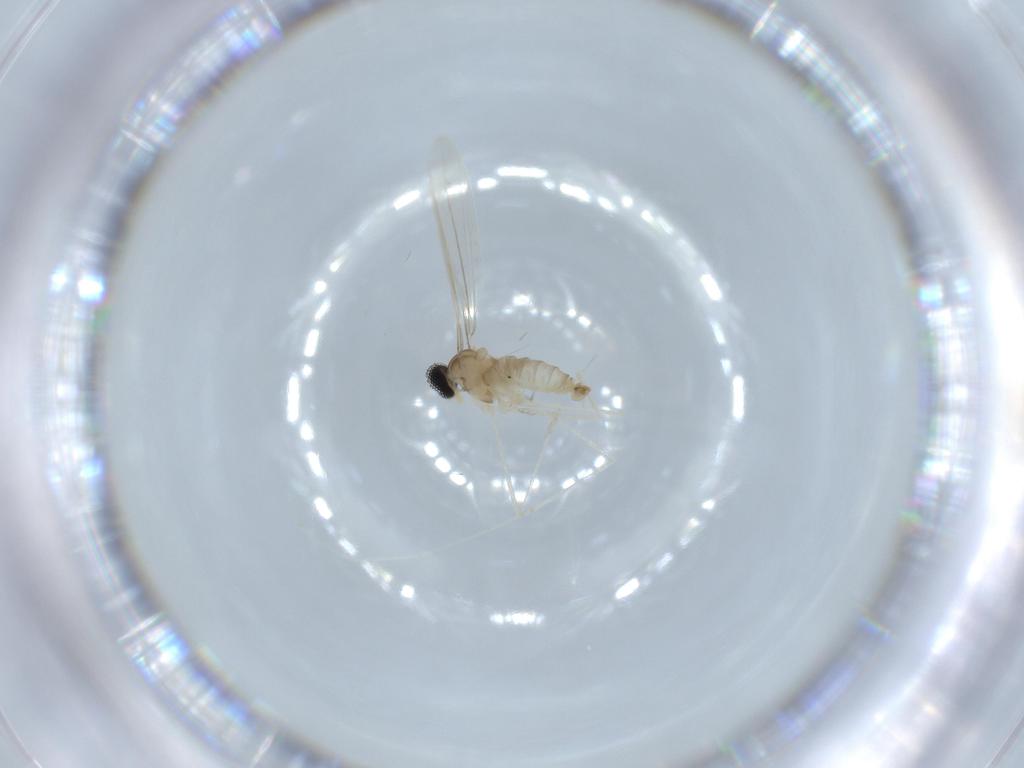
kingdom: Animalia
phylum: Arthropoda
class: Insecta
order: Diptera
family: Cecidomyiidae
